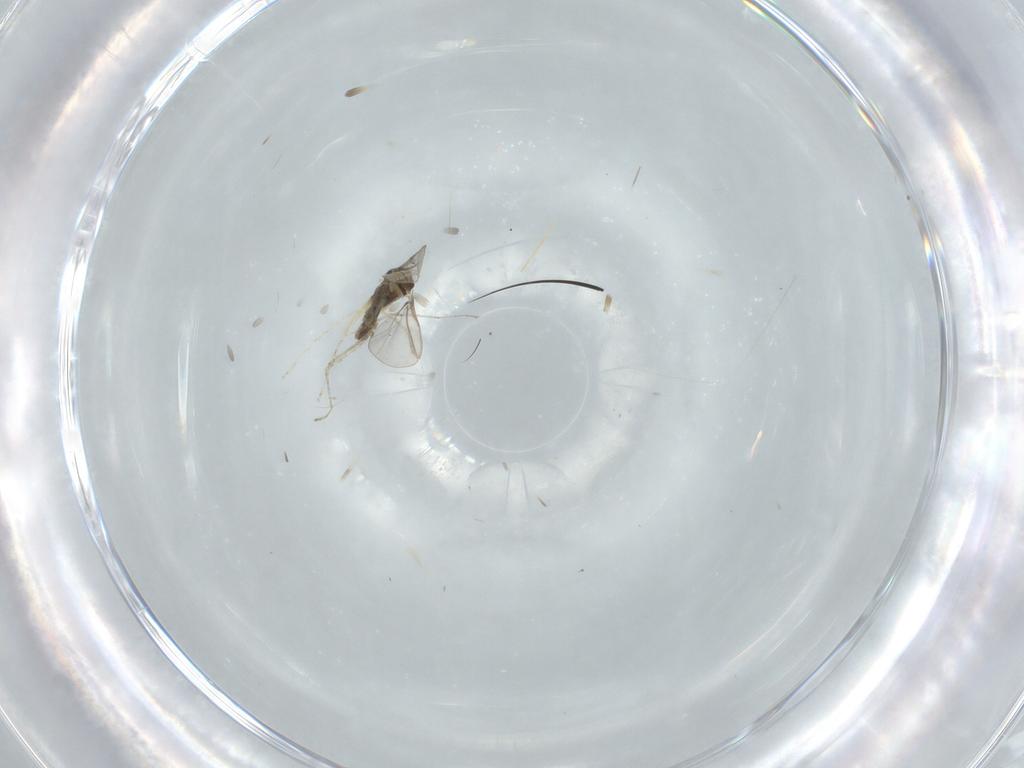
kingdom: Animalia
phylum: Arthropoda
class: Insecta
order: Diptera
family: Cecidomyiidae
